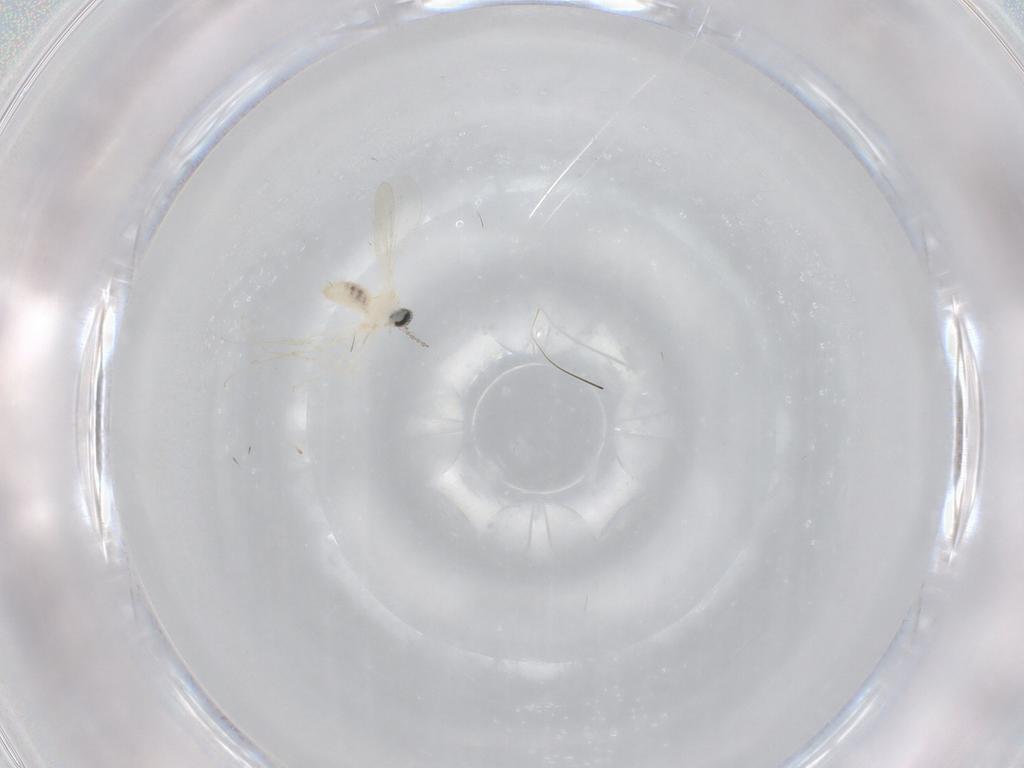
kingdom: Animalia
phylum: Arthropoda
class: Insecta
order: Diptera
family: Cecidomyiidae
